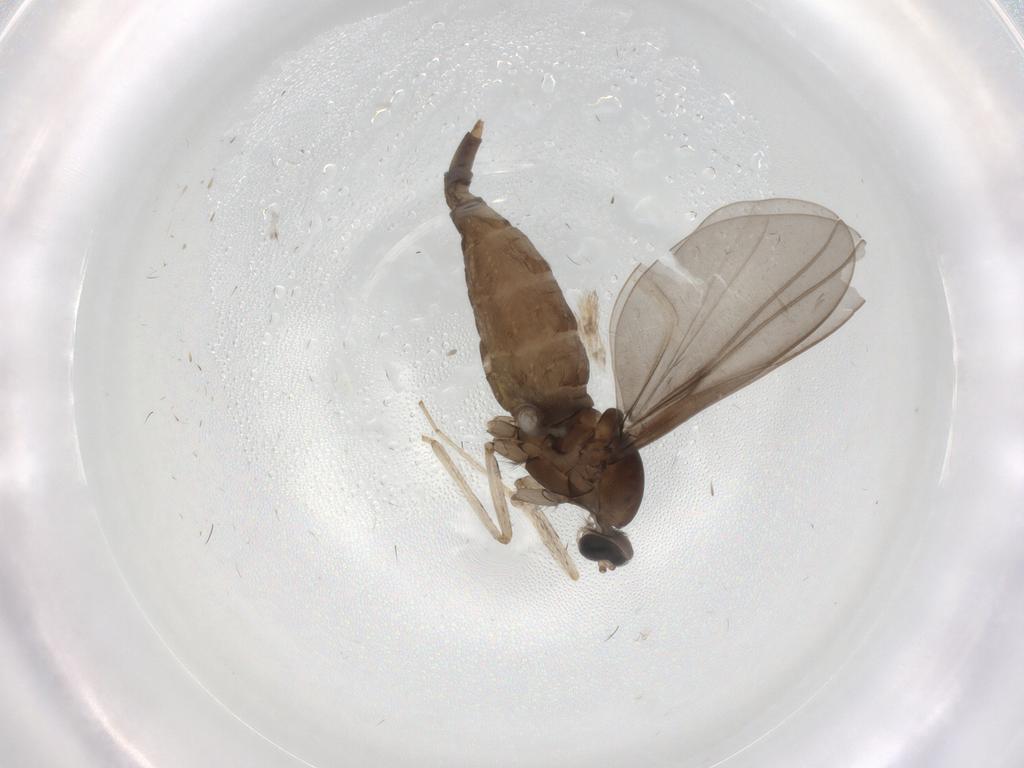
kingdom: Animalia
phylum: Arthropoda
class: Insecta
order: Diptera
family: Cecidomyiidae
